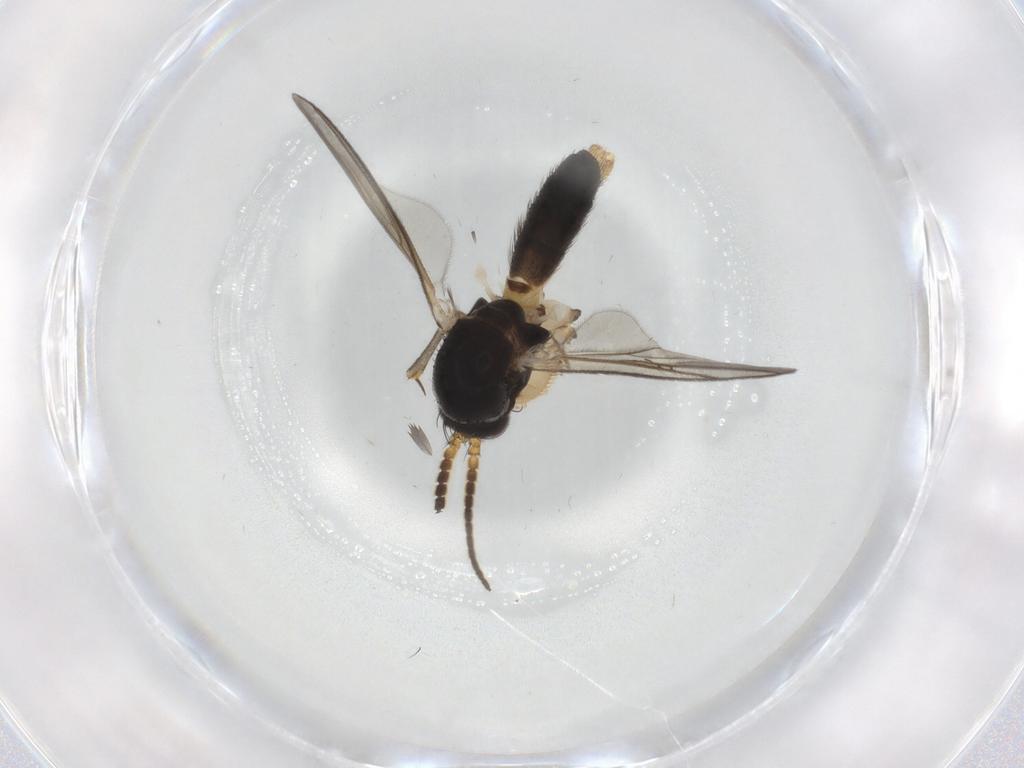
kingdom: Animalia
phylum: Arthropoda
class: Insecta
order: Diptera
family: Mycetophilidae
